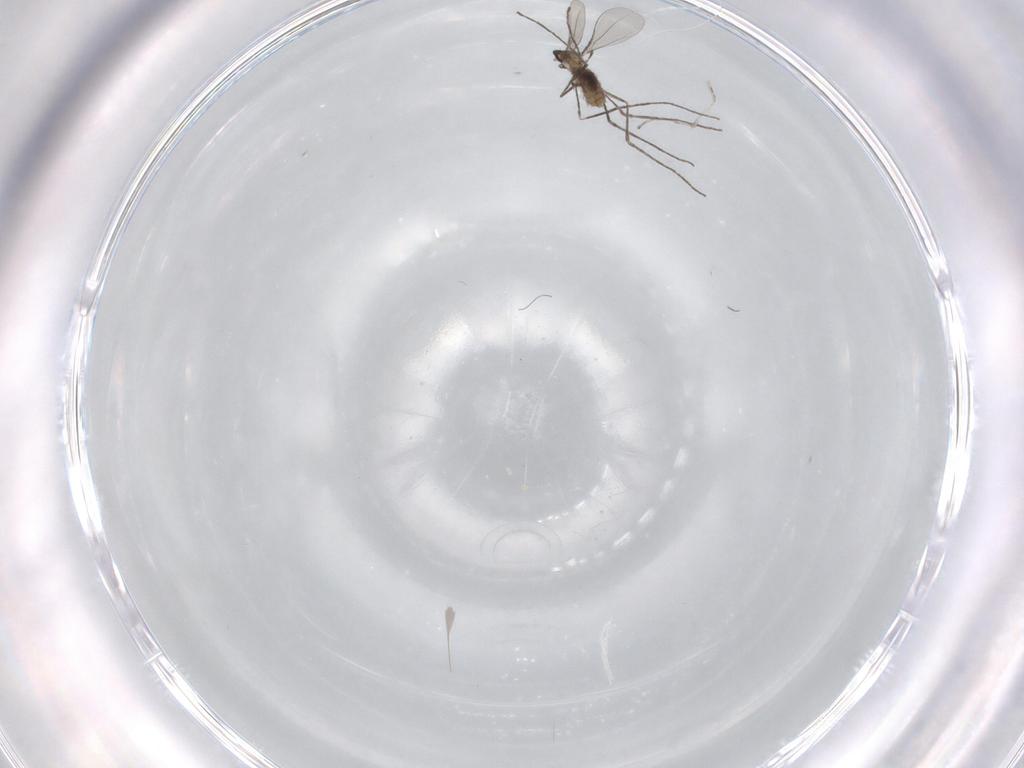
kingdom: Animalia
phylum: Arthropoda
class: Insecta
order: Diptera
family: Cecidomyiidae
